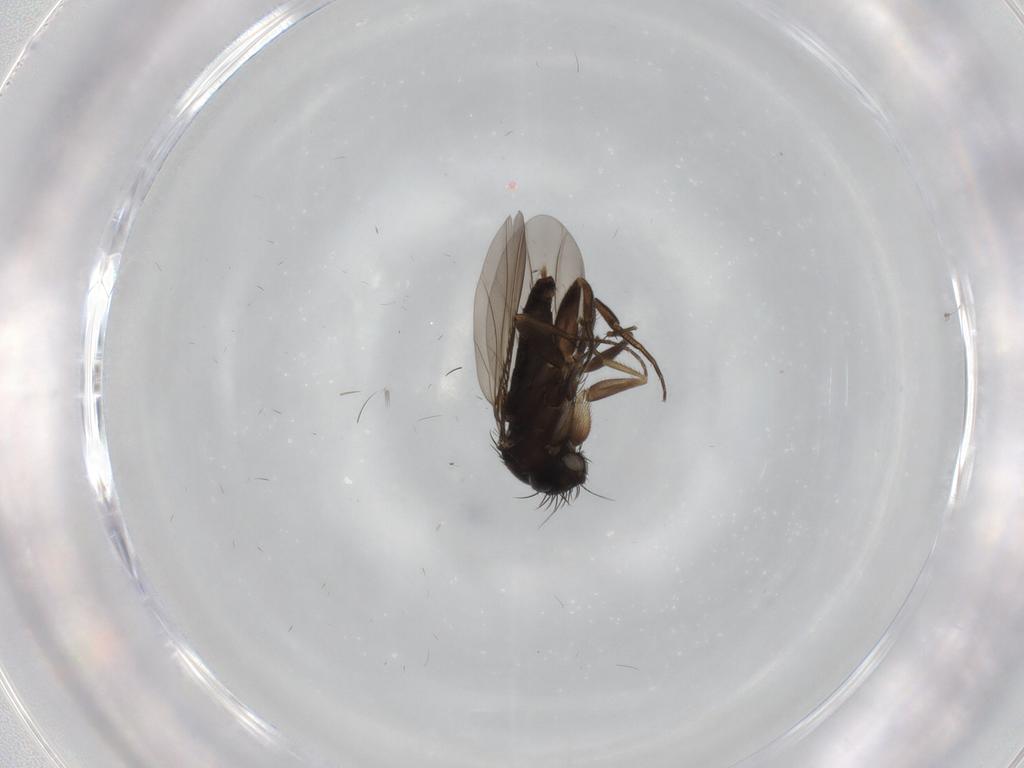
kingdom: Animalia
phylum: Arthropoda
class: Insecta
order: Diptera
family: Phoridae
